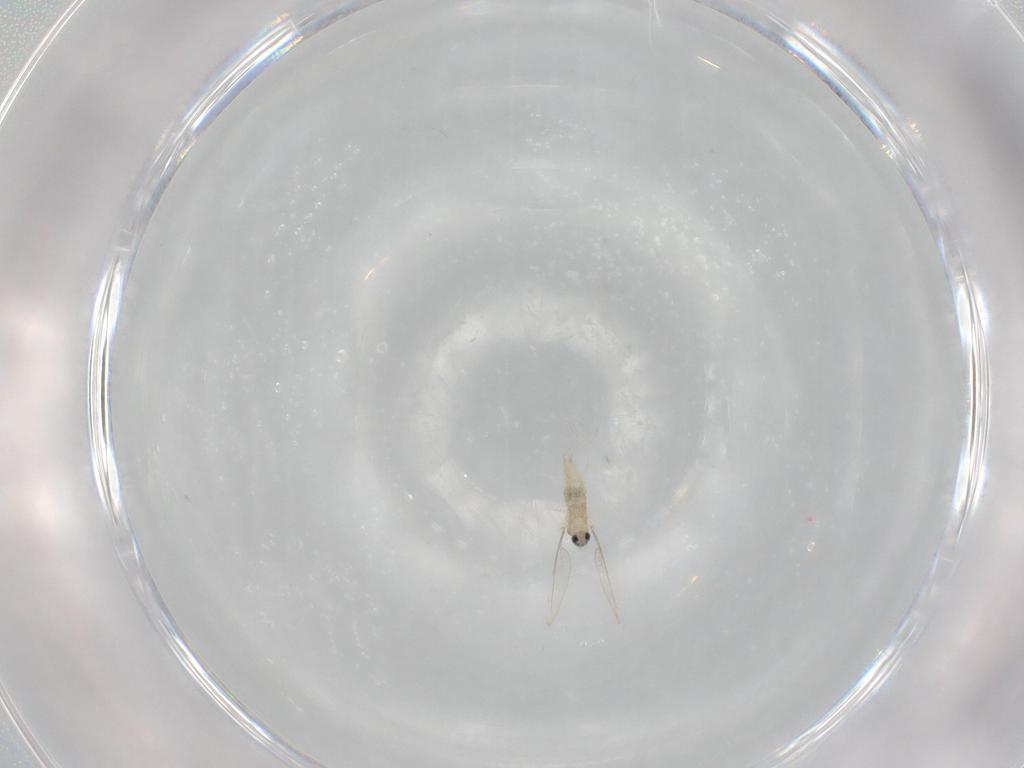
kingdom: Animalia
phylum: Arthropoda
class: Insecta
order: Diptera
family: Cecidomyiidae
